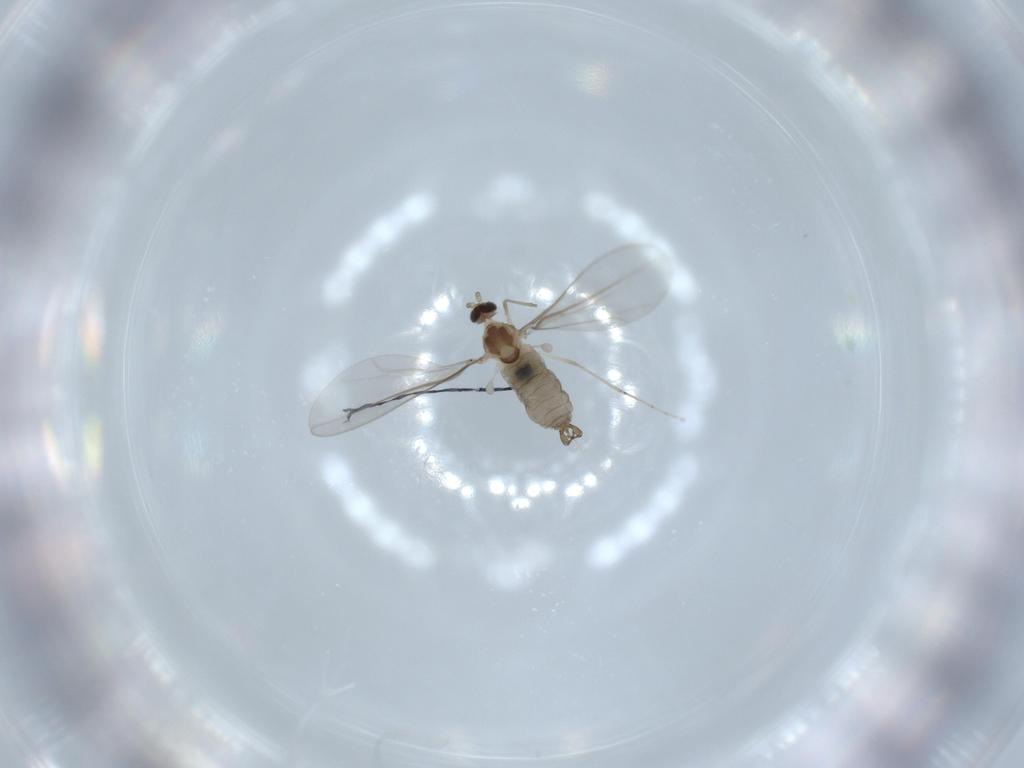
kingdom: Animalia
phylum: Arthropoda
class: Insecta
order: Diptera
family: Cecidomyiidae
